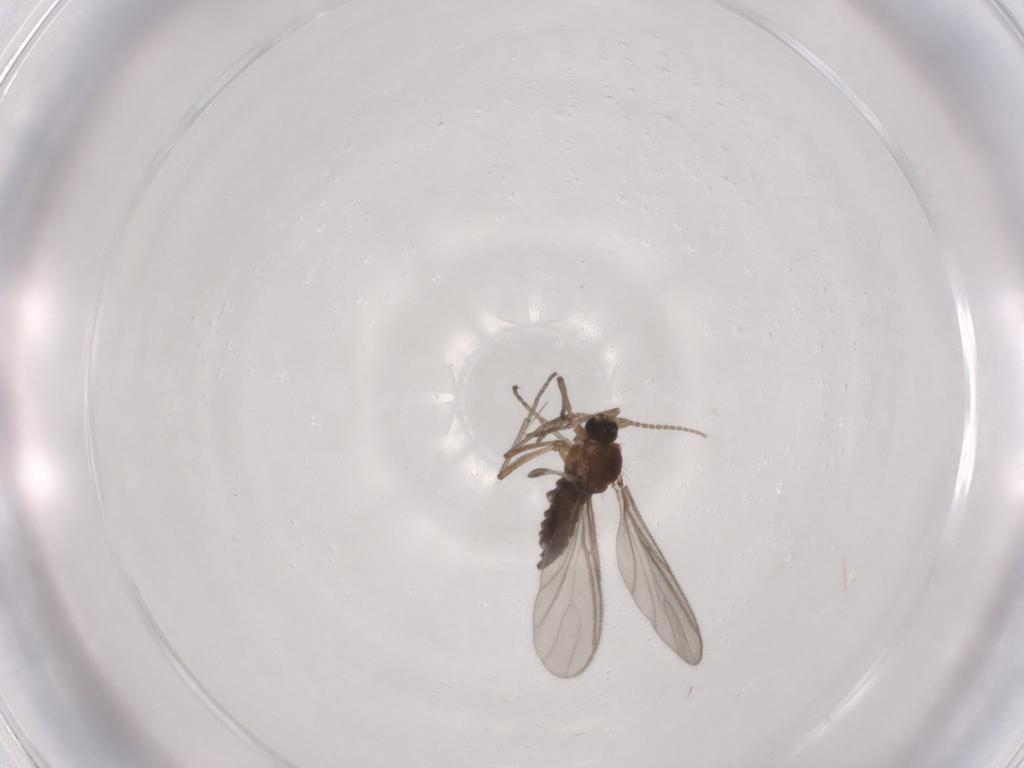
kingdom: Animalia
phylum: Arthropoda
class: Insecta
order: Diptera
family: Sciaridae
